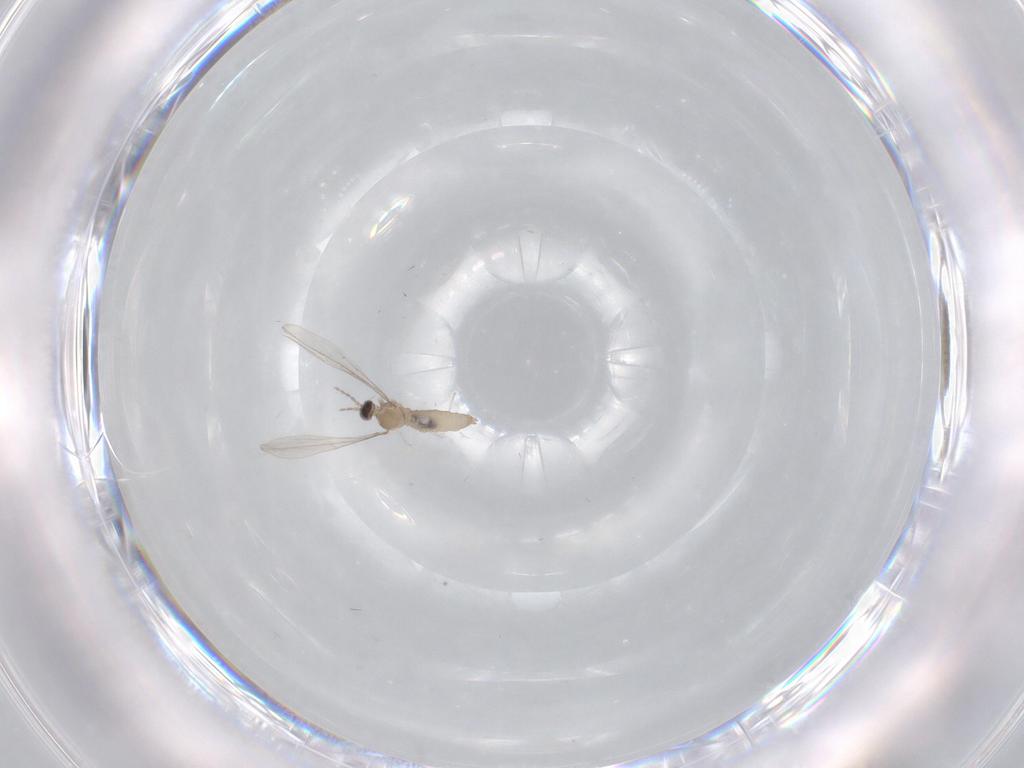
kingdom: Animalia
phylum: Arthropoda
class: Insecta
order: Diptera
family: Cecidomyiidae
